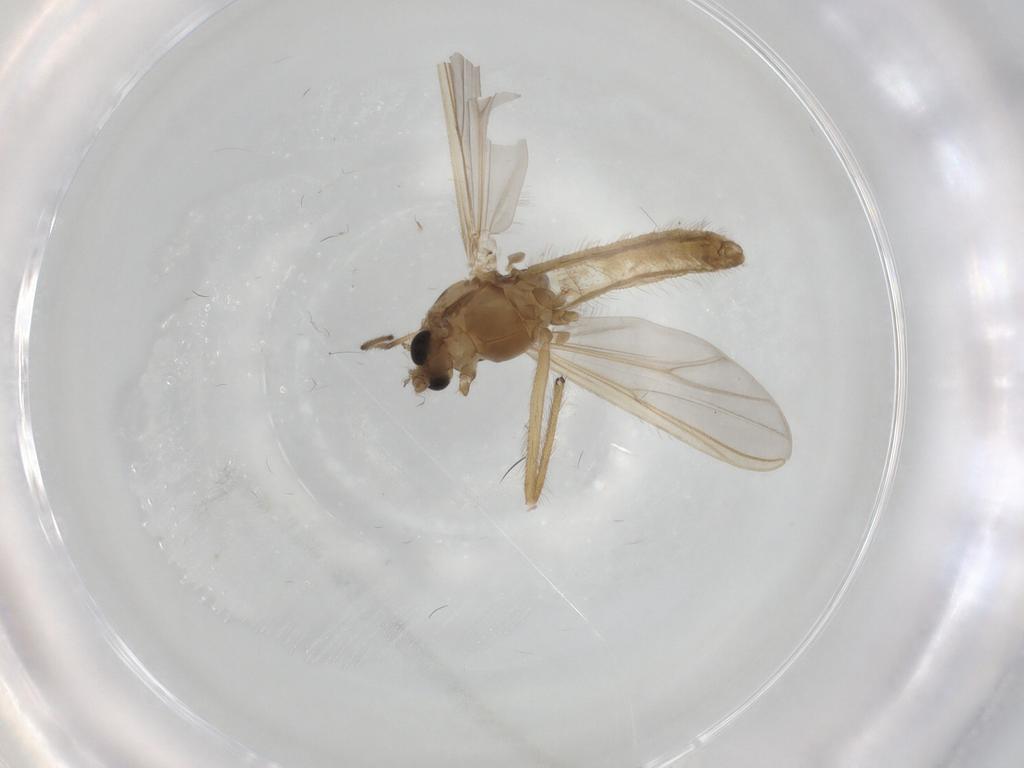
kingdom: Animalia
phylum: Arthropoda
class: Insecta
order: Diptera
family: Chironomidae
